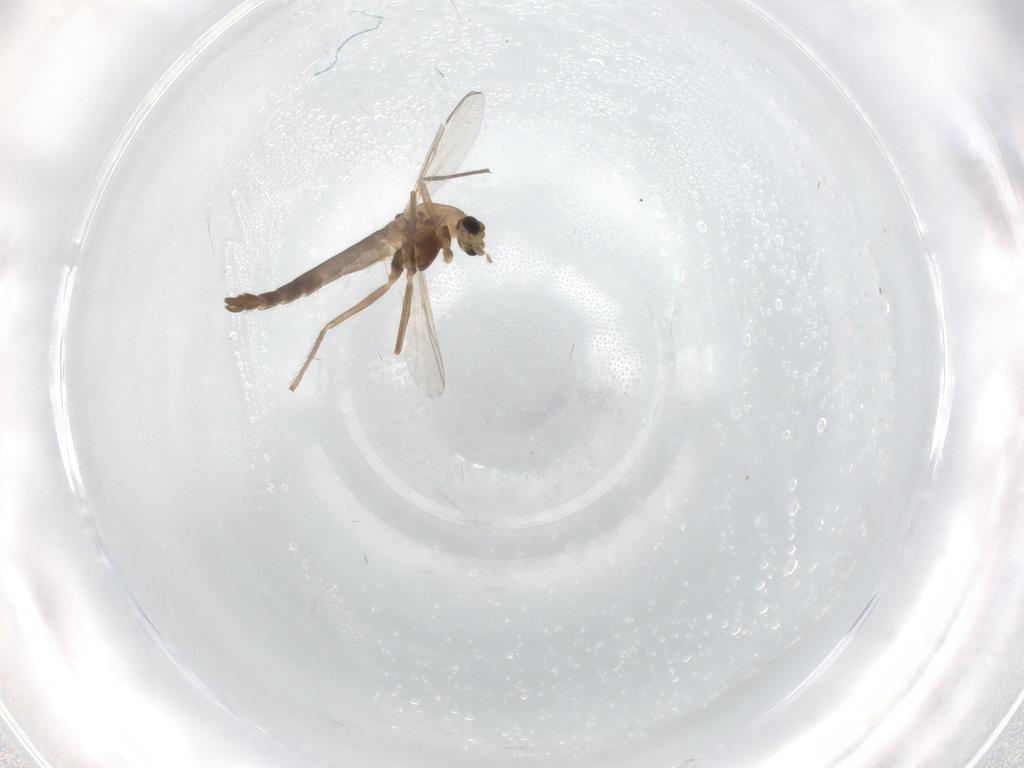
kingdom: Animalia
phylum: Arthropoda
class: Insecta
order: Diptera
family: Chironomidae
